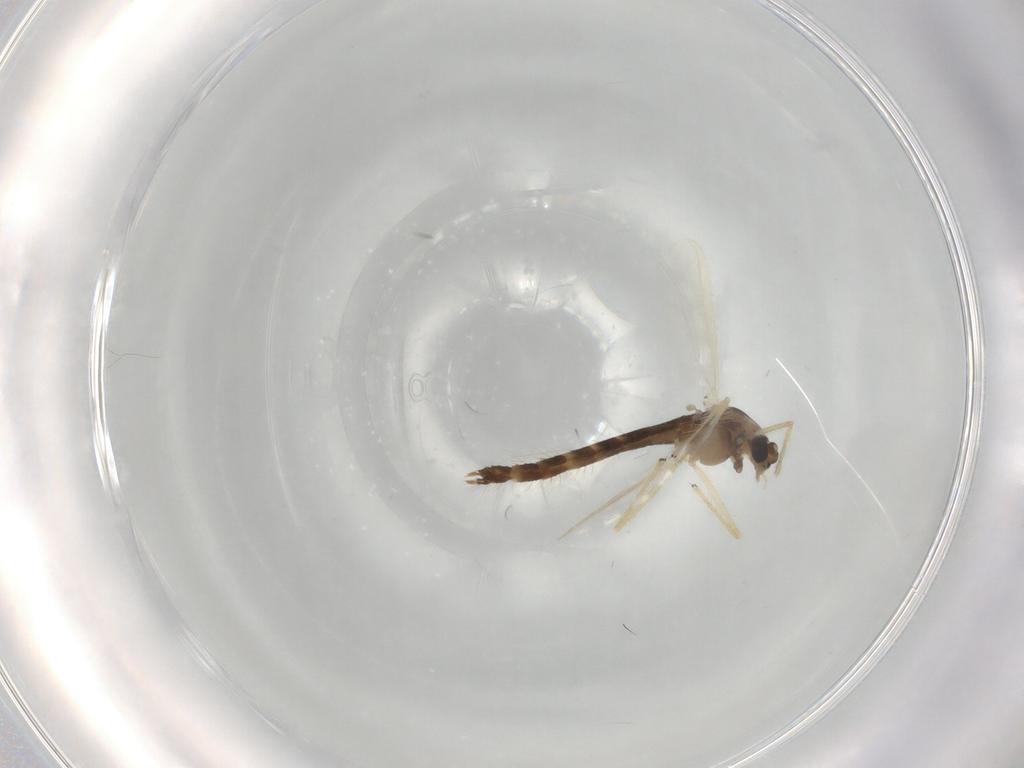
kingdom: Animalia
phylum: Arthropoda
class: Insecta
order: Diptera
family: Chironomidae
